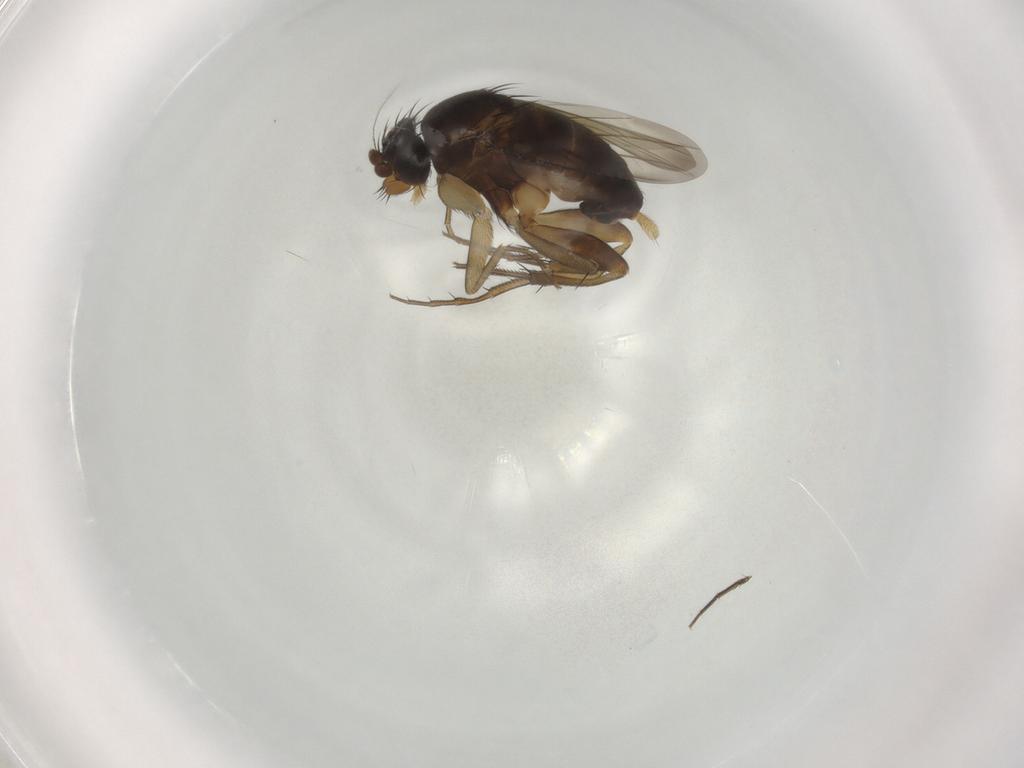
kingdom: Animalia
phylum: Arthropoda
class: Insecta
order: Diptera
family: Phoridae
